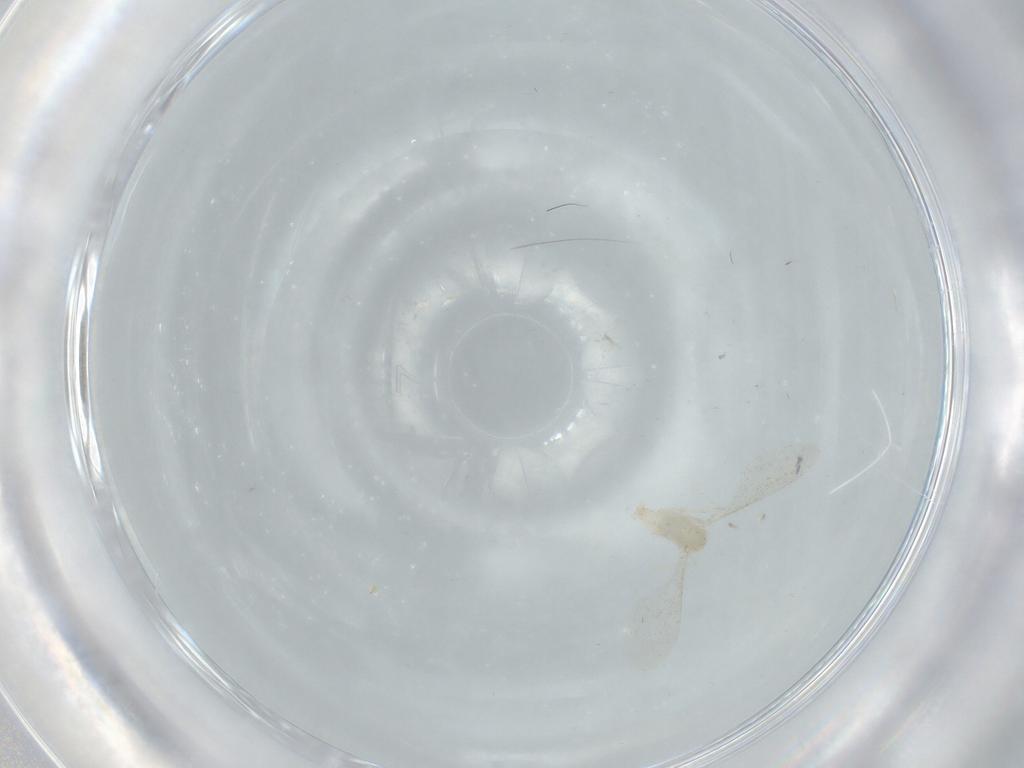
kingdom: Animalia
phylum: Arthropoda
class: Insecta
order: Diptera
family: Cecidomyiidae
